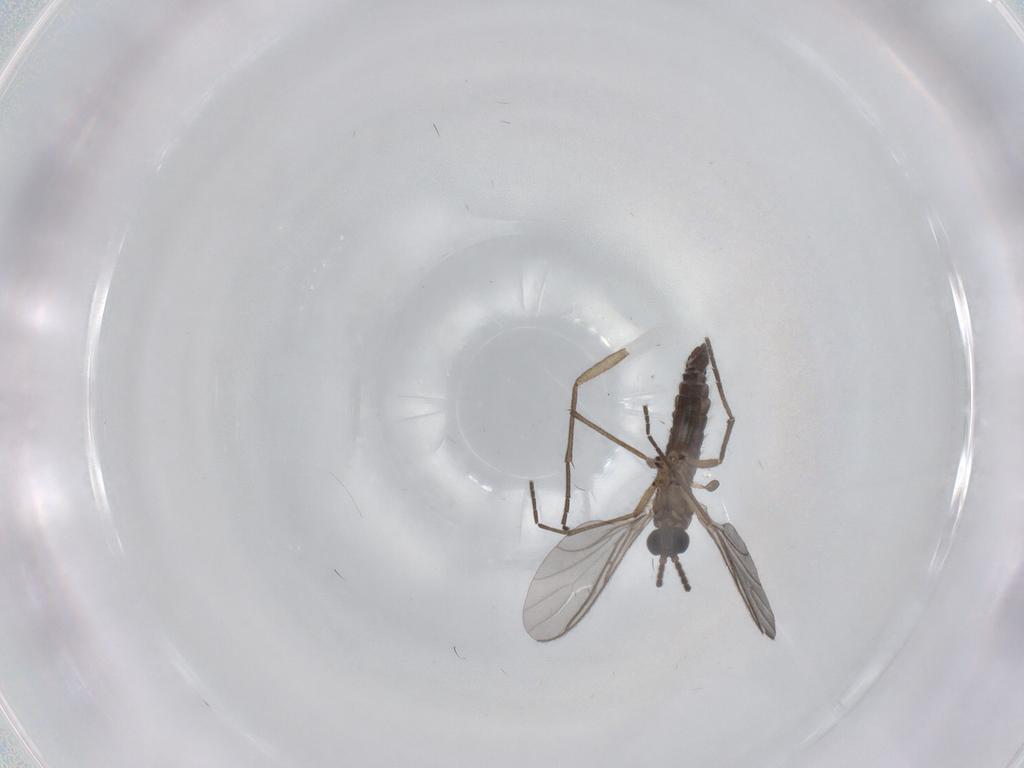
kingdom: Animalia
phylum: Arthropoda
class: Insecta
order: Diptera
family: Sciaridae
